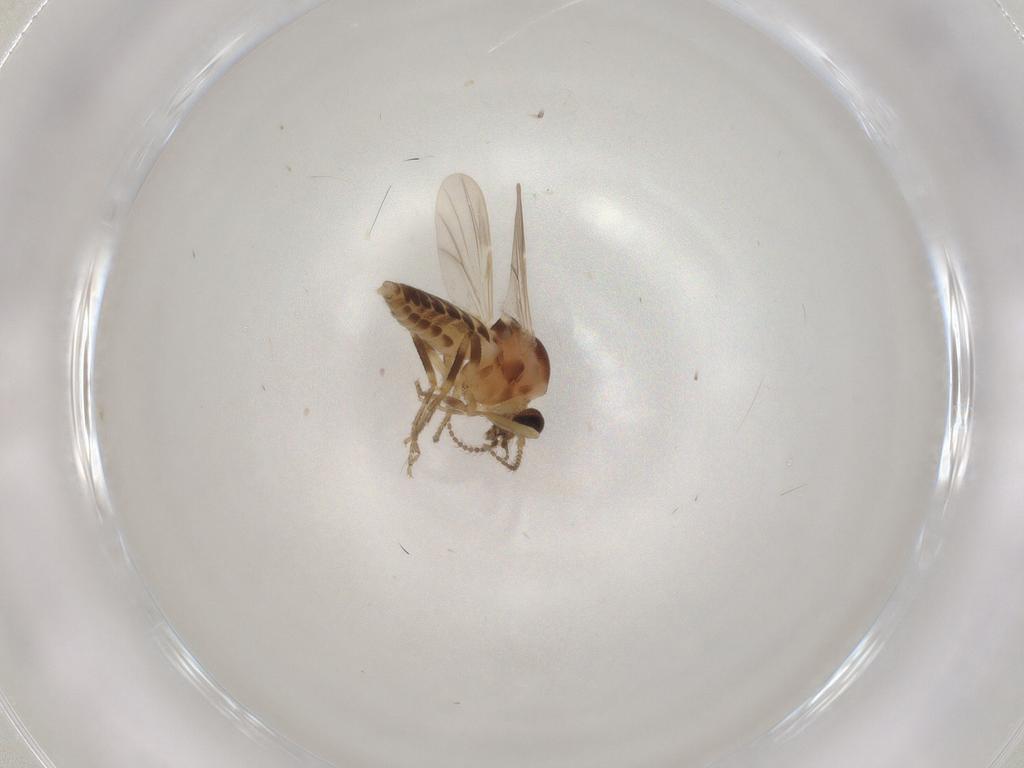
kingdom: Animalia
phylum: Arthropoda
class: Insecta
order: Diptera
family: Ceratopogonidae
